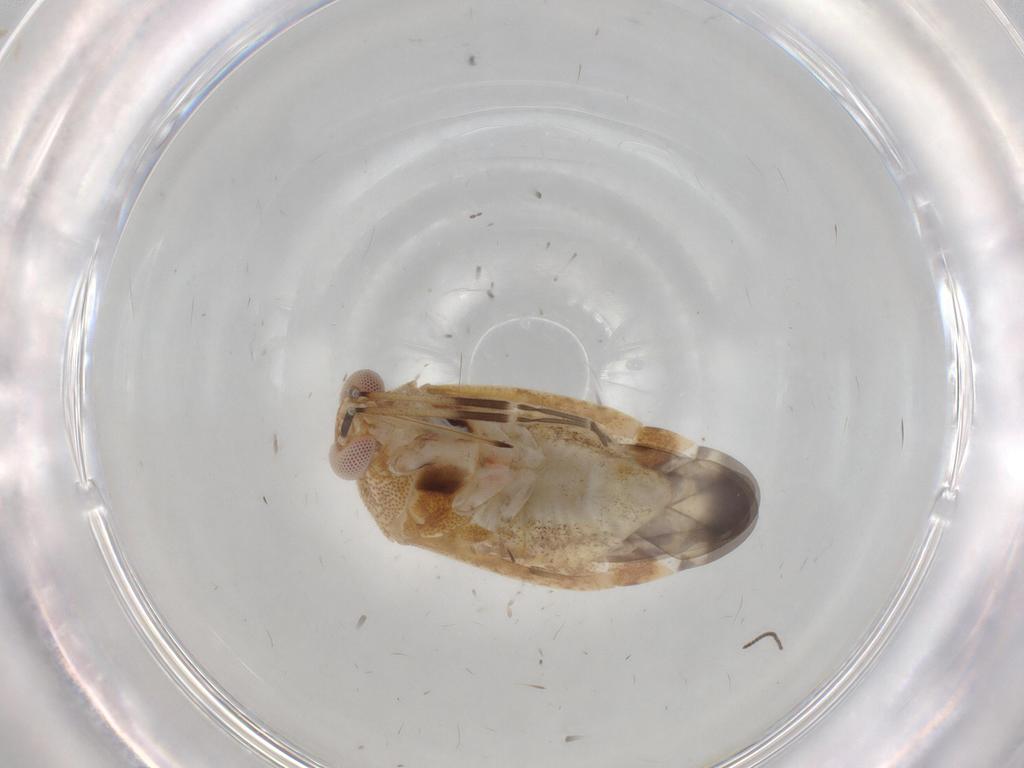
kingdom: Animalia
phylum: Arthropoda
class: Insecta
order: Hemiptera
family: Miridae
